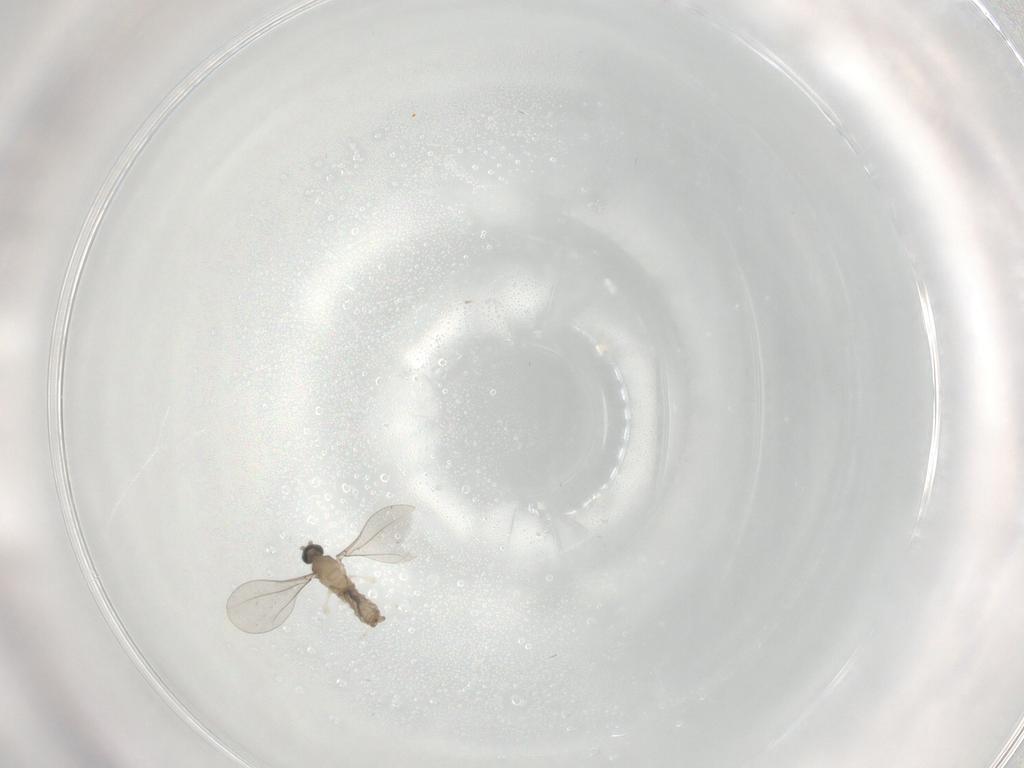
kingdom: Animalia
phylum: Arthropoda
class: Insecta
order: Diptera
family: Cecidomyiidae
